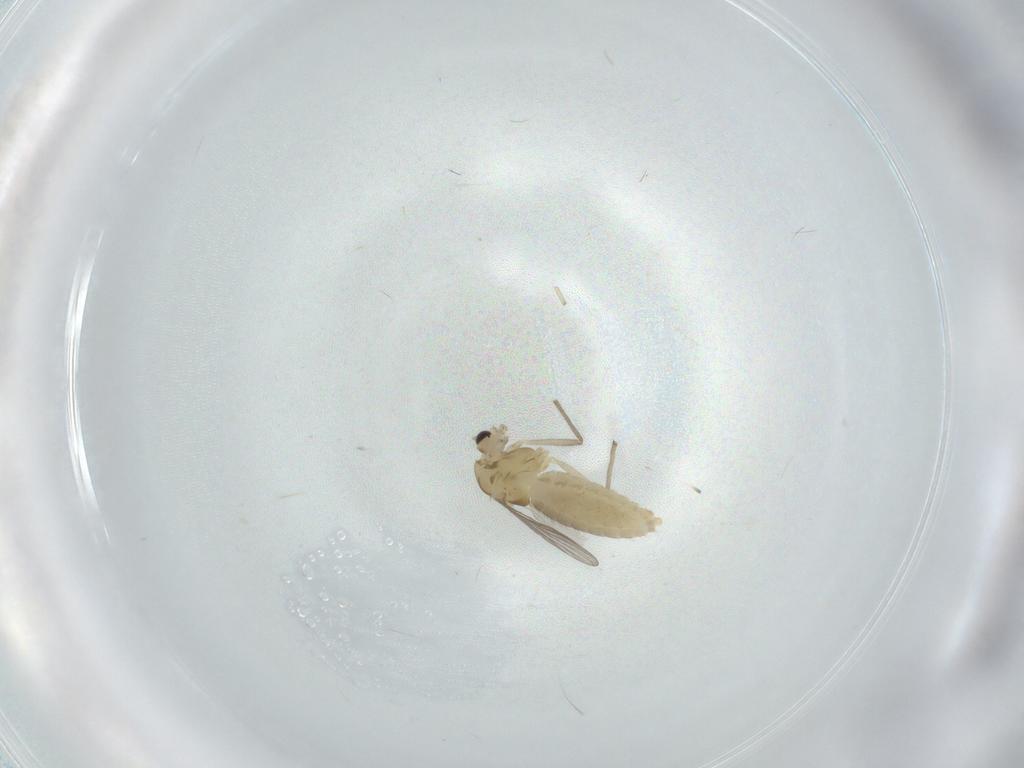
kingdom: Animalia
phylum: Arthropoda
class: Insecta
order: Diptera
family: Chironomidae
